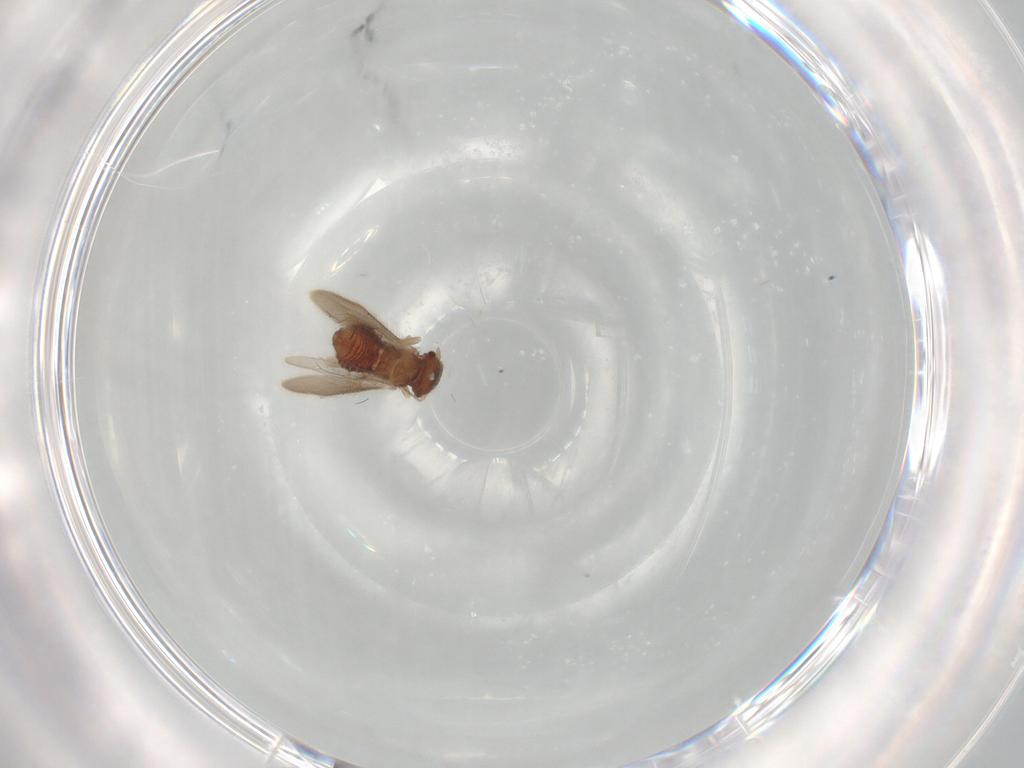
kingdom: Animalia
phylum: Arthropoda
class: Insecta
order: Psocodea
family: Archipsocidae
